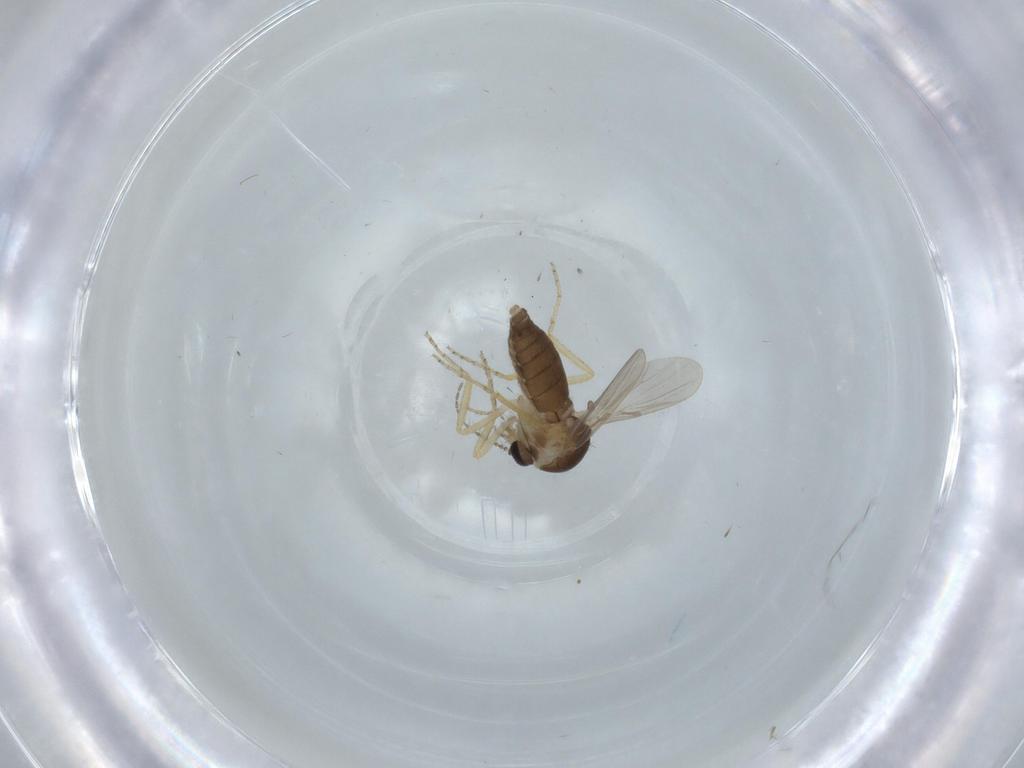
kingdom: Animalia
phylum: Arthropoda
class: Insecta
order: Diptera
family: Ceratopogonidae
